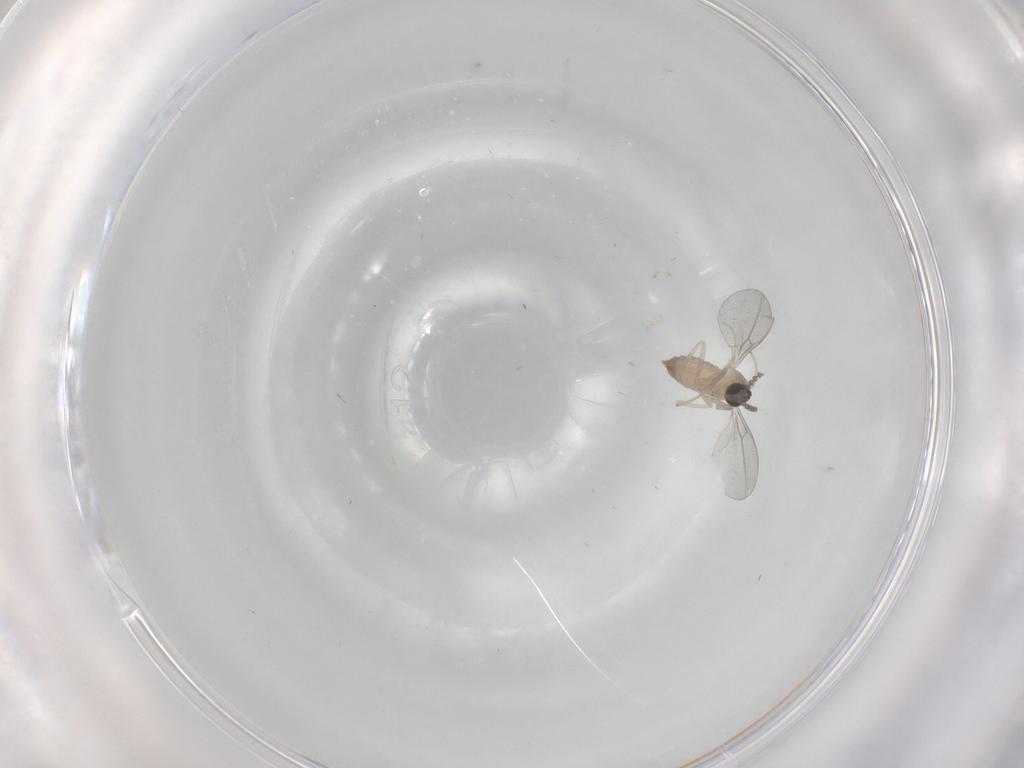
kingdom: Animalia
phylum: Arthropoda
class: Insecta
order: Diptera
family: Cecidomyiidae
